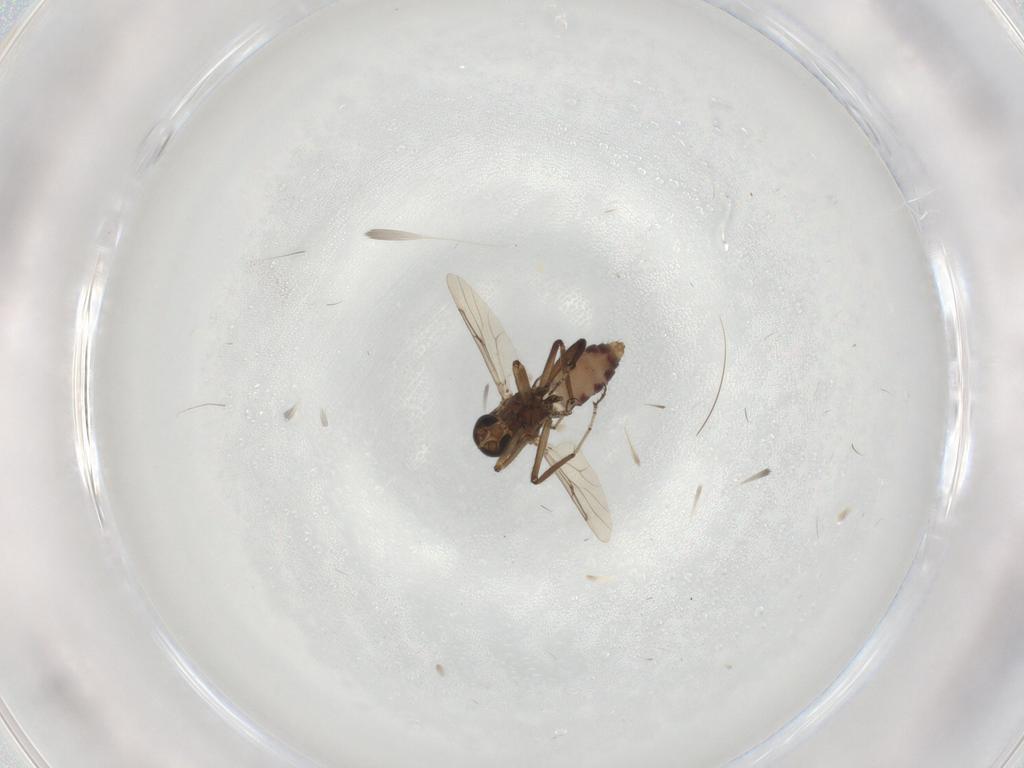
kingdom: Animalia
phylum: Arthropoda
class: Insecta
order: Diptera
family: Ceratopogonidae
